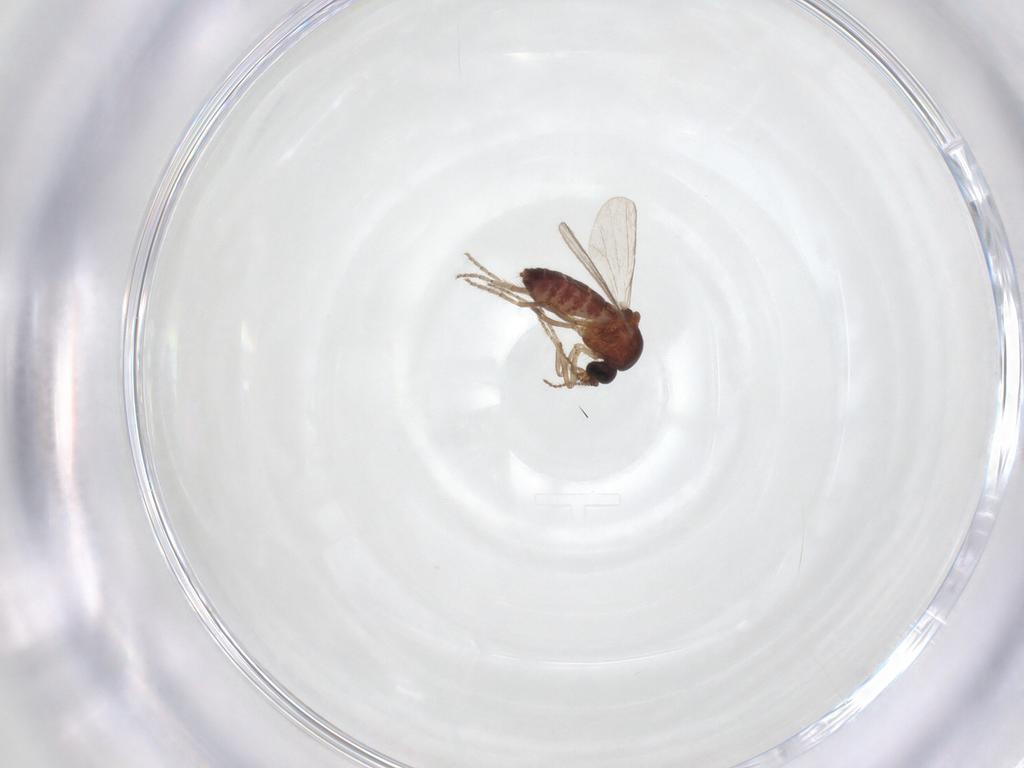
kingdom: Animalia
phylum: Arthropoda
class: Insecta
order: Diptera
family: Ceratopogonidae
